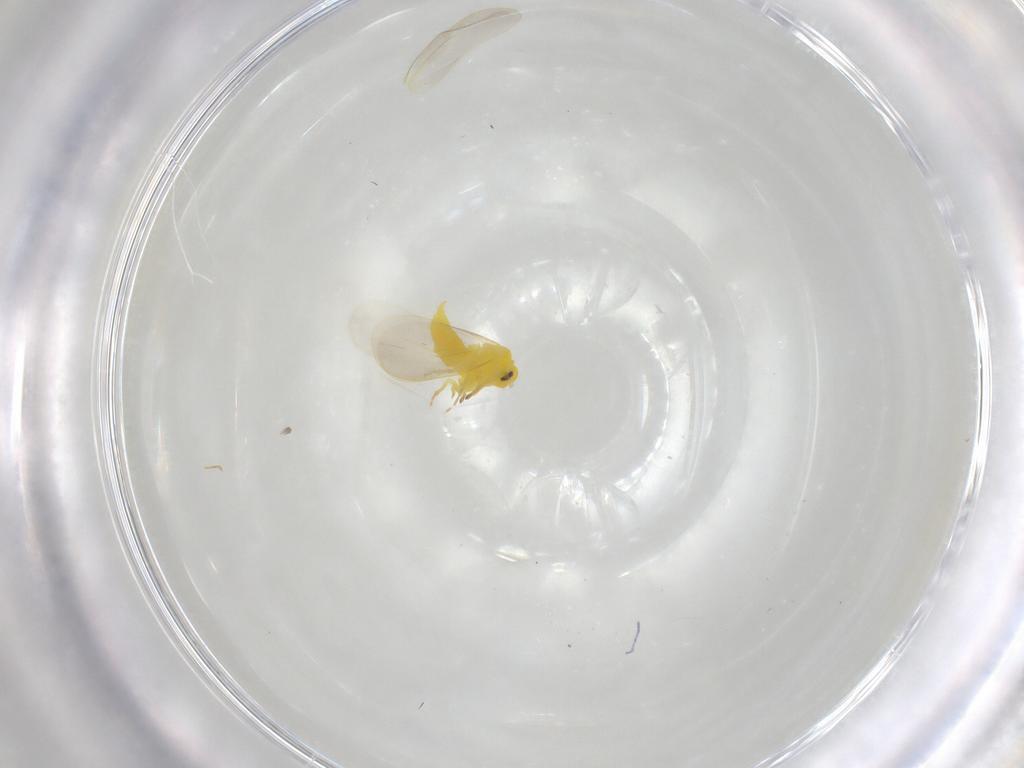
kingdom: Animalia
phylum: Arthropoda
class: Insecta
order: Hemiptera
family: Aleyrodidae
